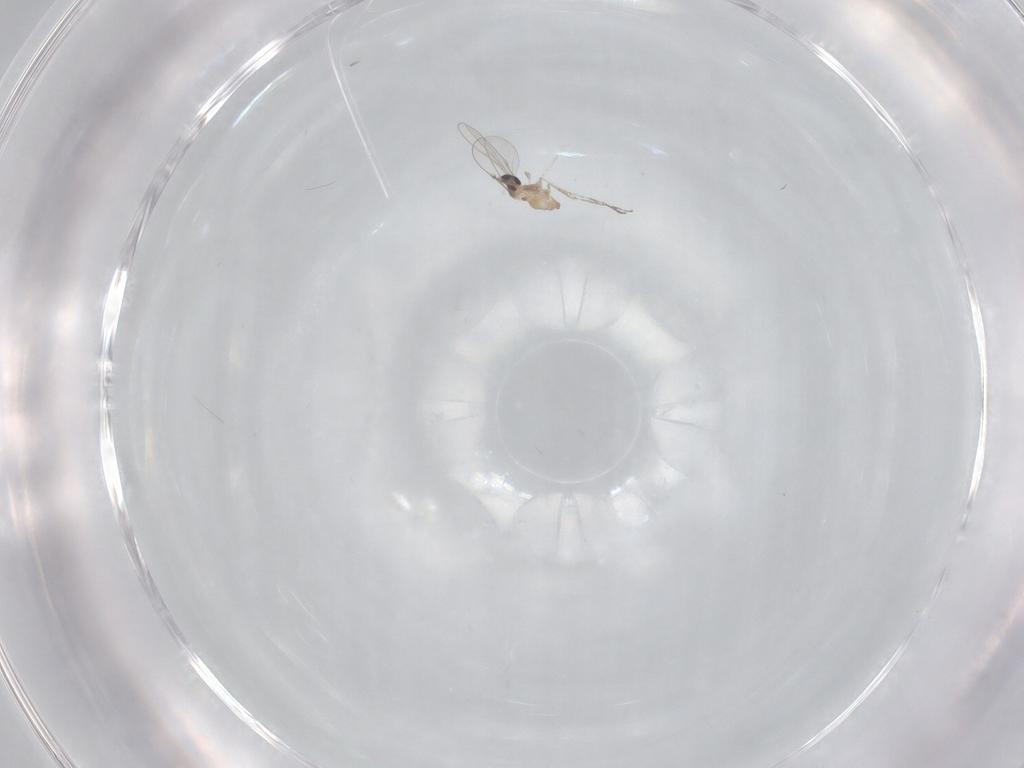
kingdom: Animalia
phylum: Arthropoda
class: Insecta
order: Diptera
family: Cecidomyiidae
